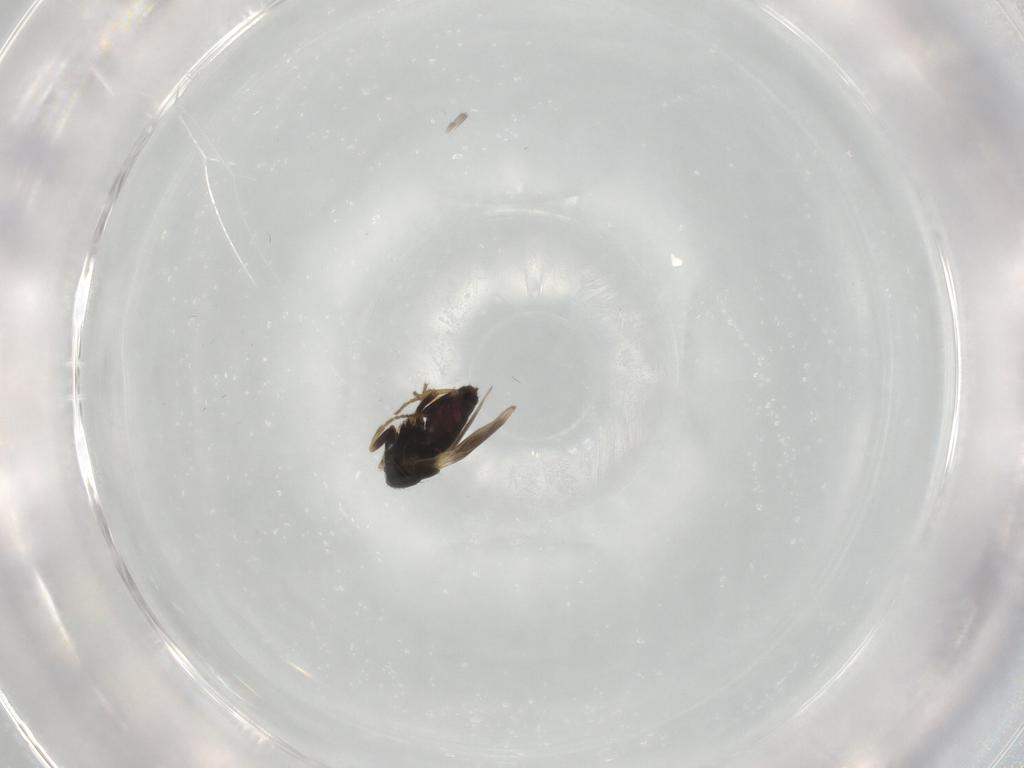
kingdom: Animalia
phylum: Arthropoda
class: Insecta
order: Diptera
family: Sphaeroceridae
